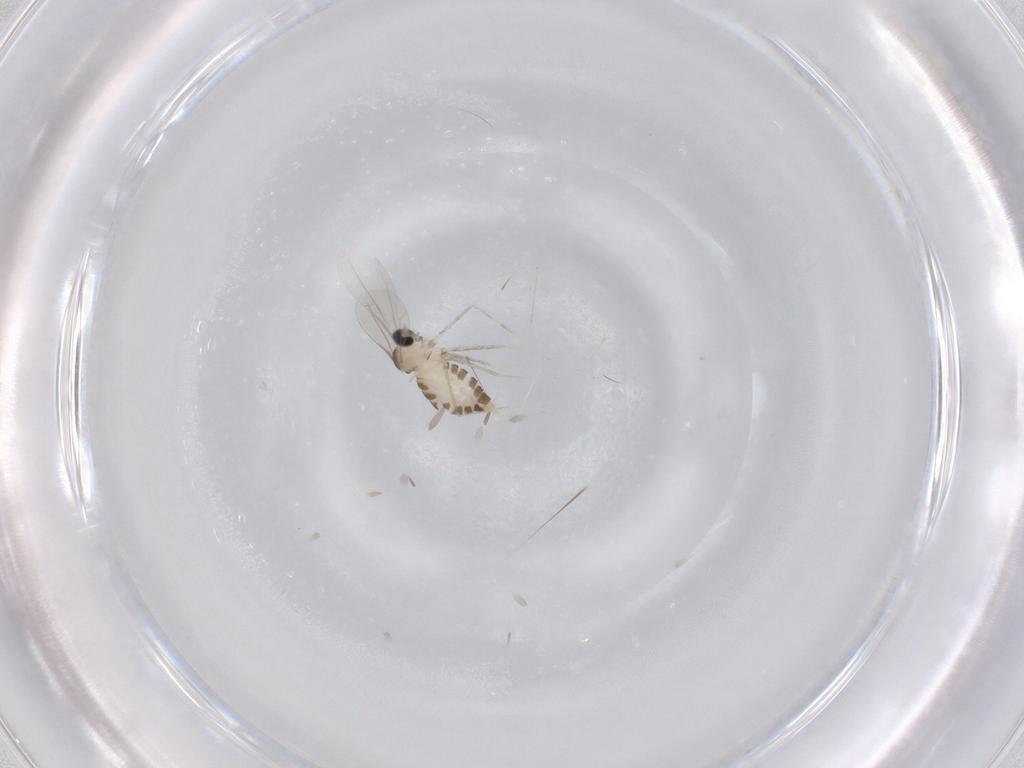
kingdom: Animalia
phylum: Arthropoda
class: Insecta
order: Diptera
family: Cecidomyiidae
